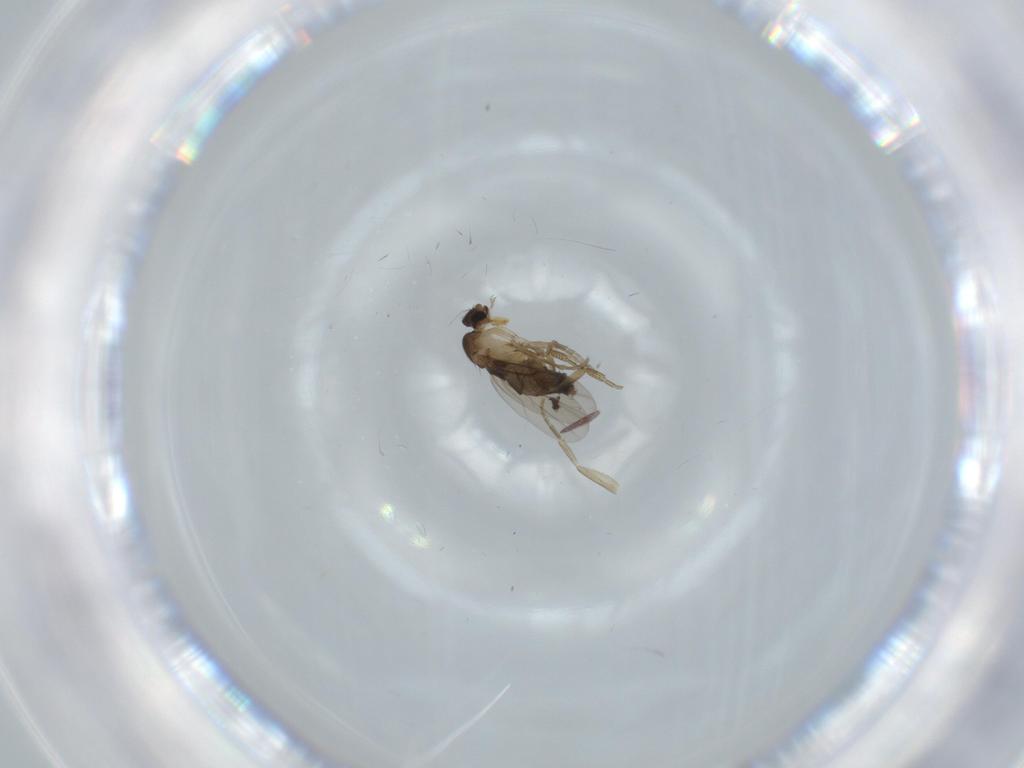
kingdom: Animalia
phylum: Arthropoda
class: Insecta
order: Diptera
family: Phoridae
